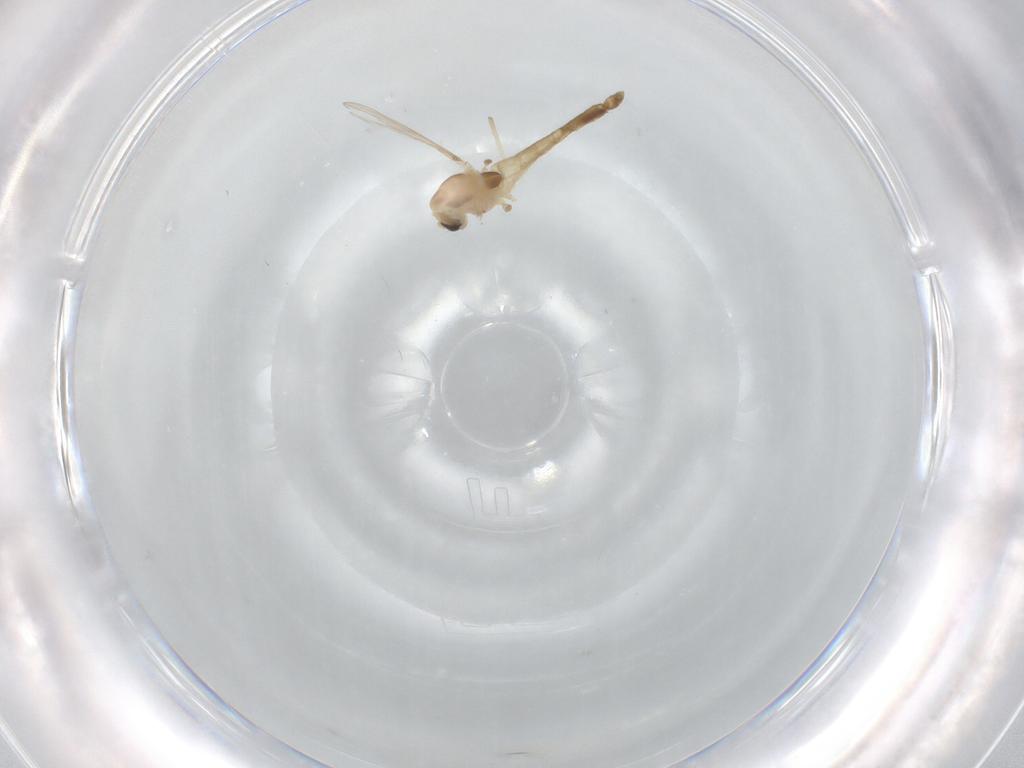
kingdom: Animalia
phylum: Arthropoda
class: Insecta
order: Diptera
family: Chironomidae
